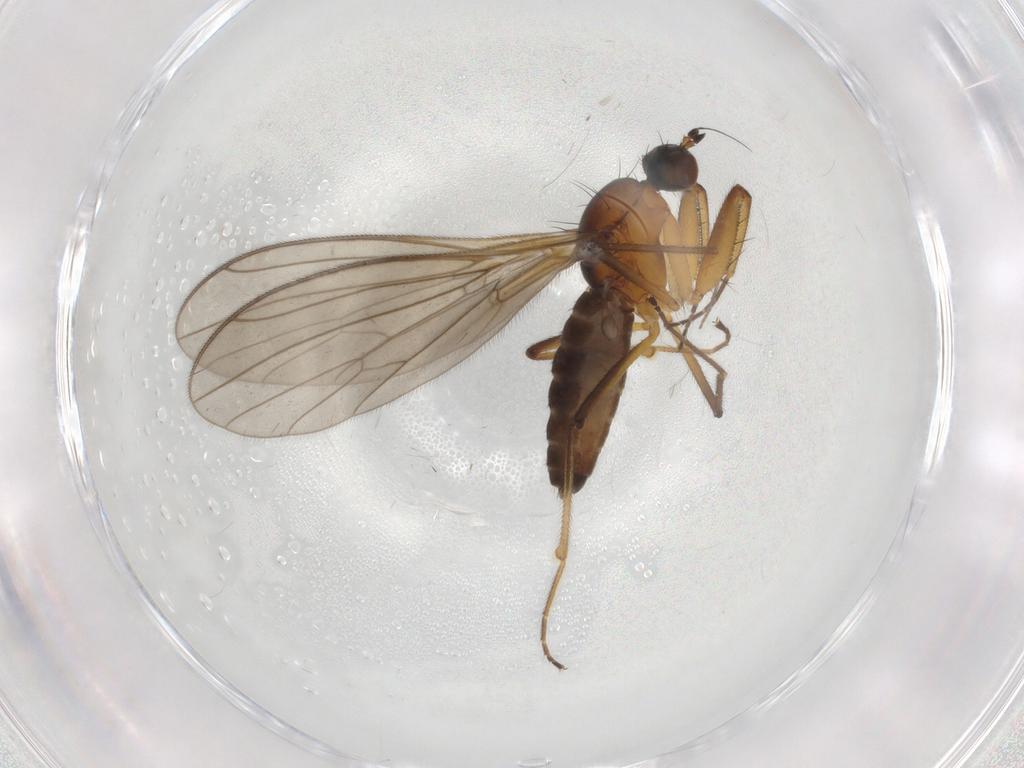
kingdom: Animalia
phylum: Arthropoda
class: Insecta
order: Diptera
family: Empididae
